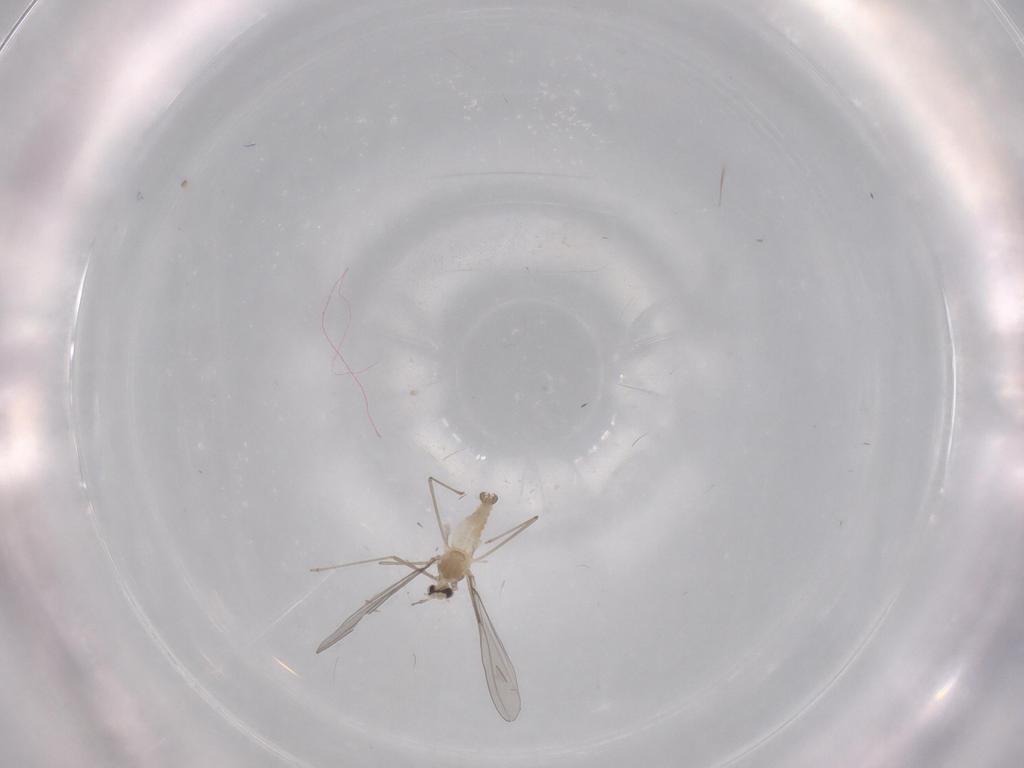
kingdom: Animalia
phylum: Arthropoda
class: Insecta
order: Diptera
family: Cecidomyiidae
